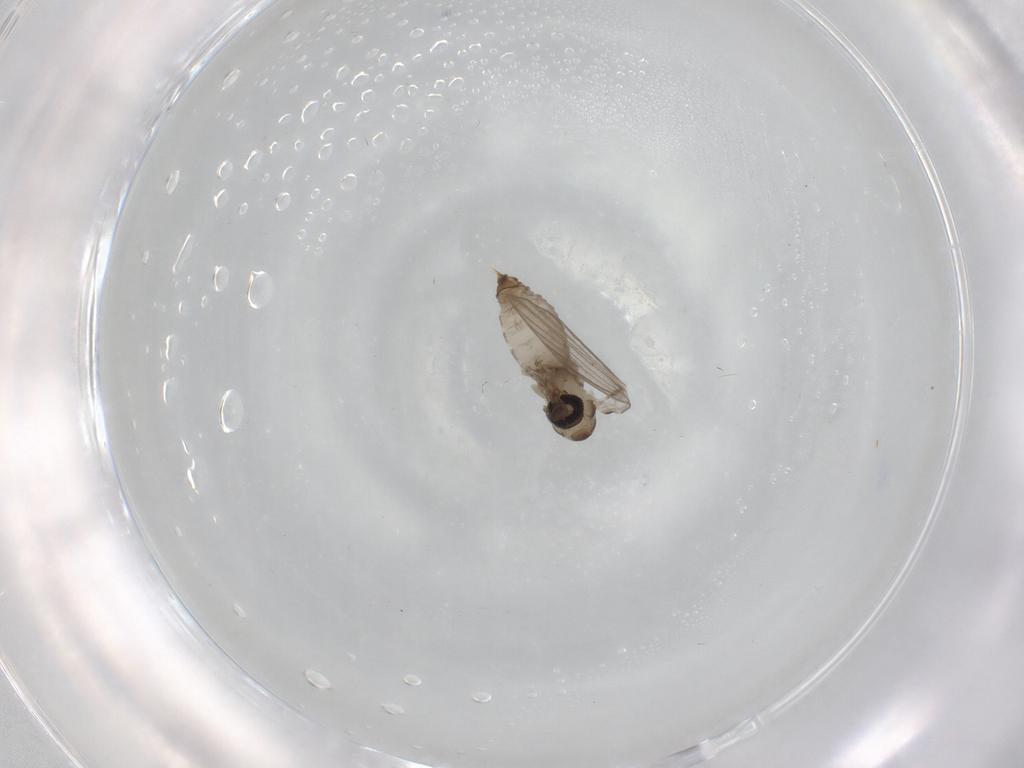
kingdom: Animalia
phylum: Arthropoda
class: Insecta
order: Diptera
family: Psychodidae
